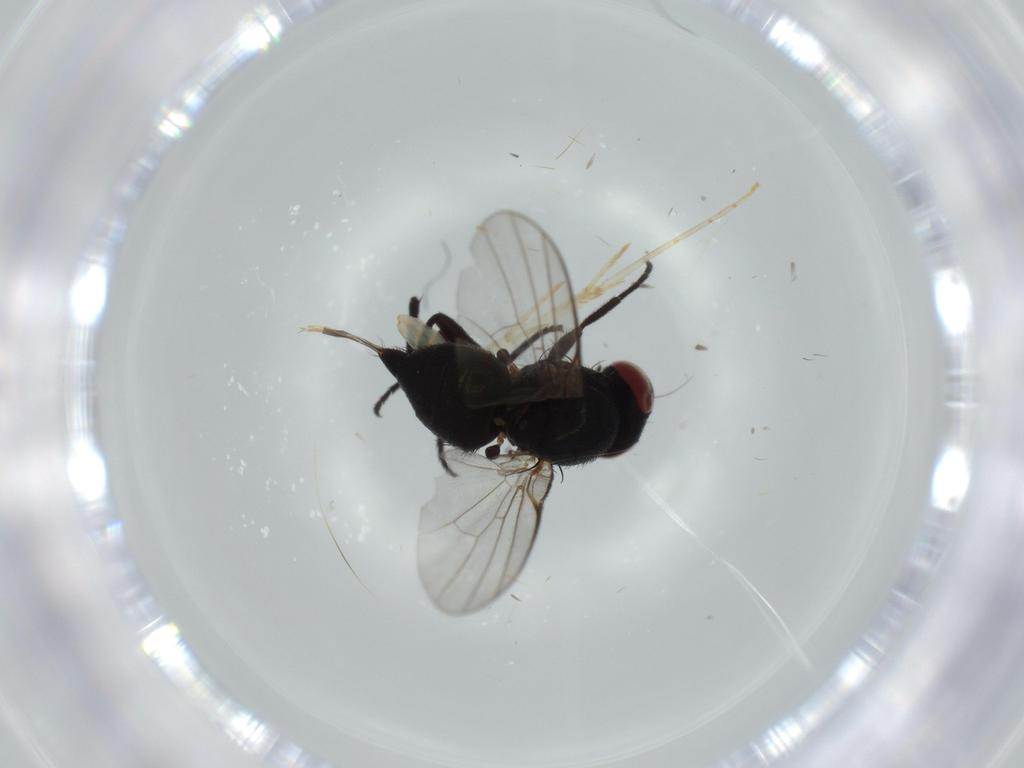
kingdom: Animalia
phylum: Arthropoda
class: Insecta
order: Diptera
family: Agromyzidae
